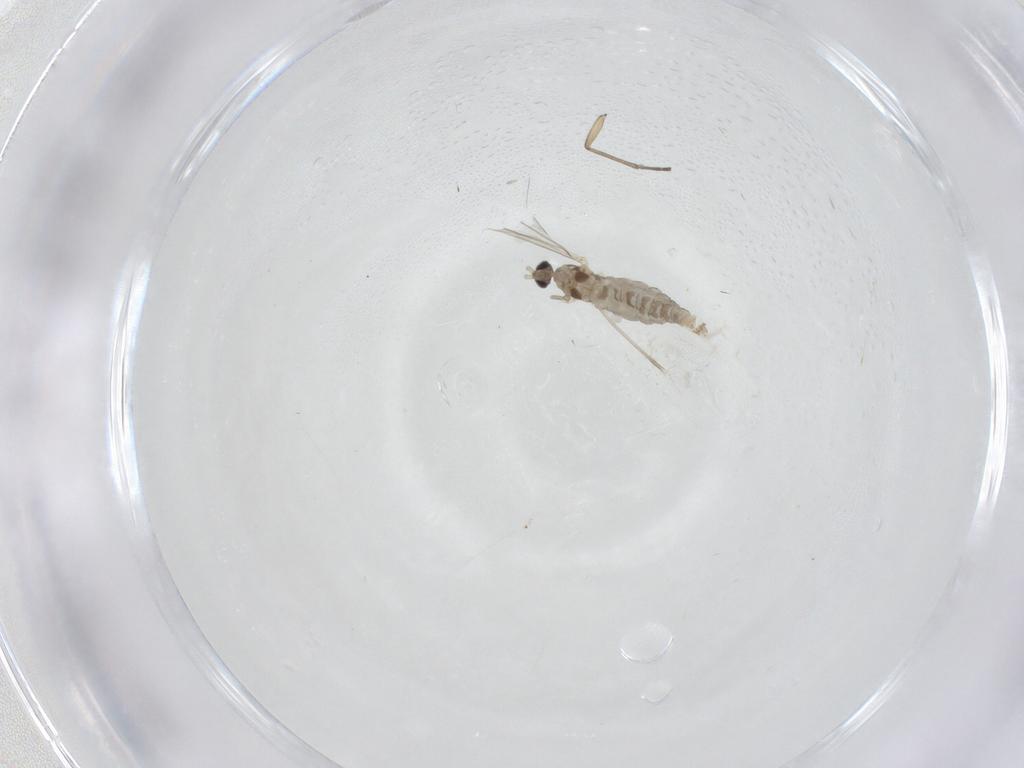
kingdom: Animalia
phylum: Arthropoda
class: Insecta
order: Diptera
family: Cecidomyiidae
